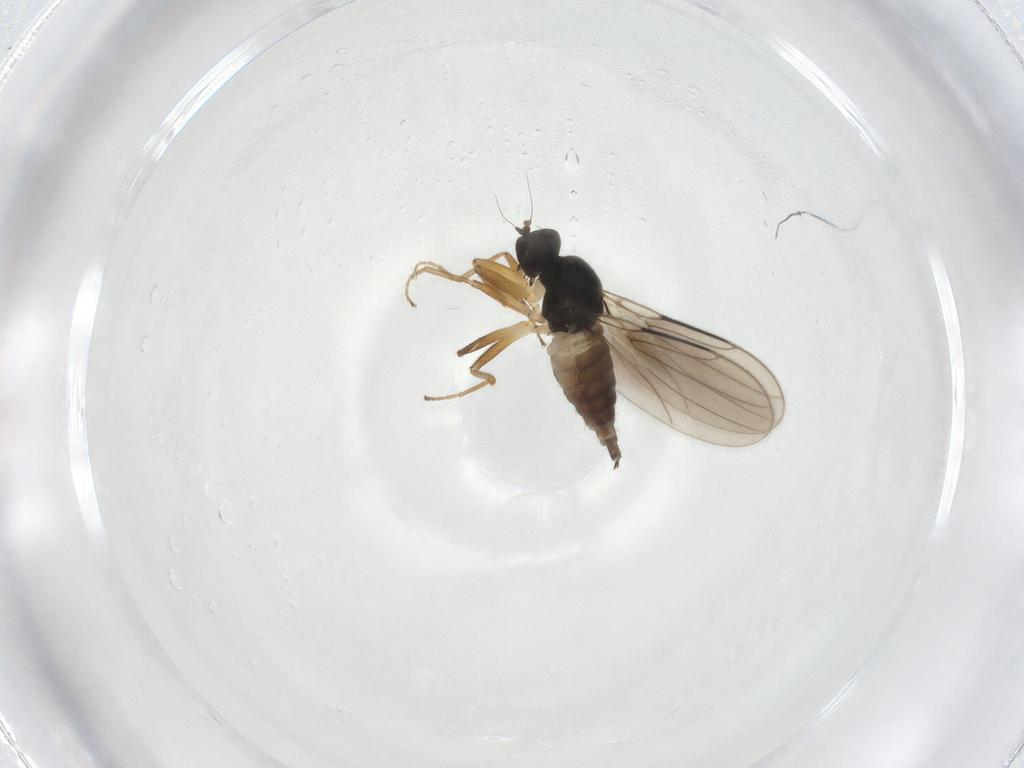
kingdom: Animalia
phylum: Arthropoda
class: Insecta
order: Diptera
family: Hybotidae
